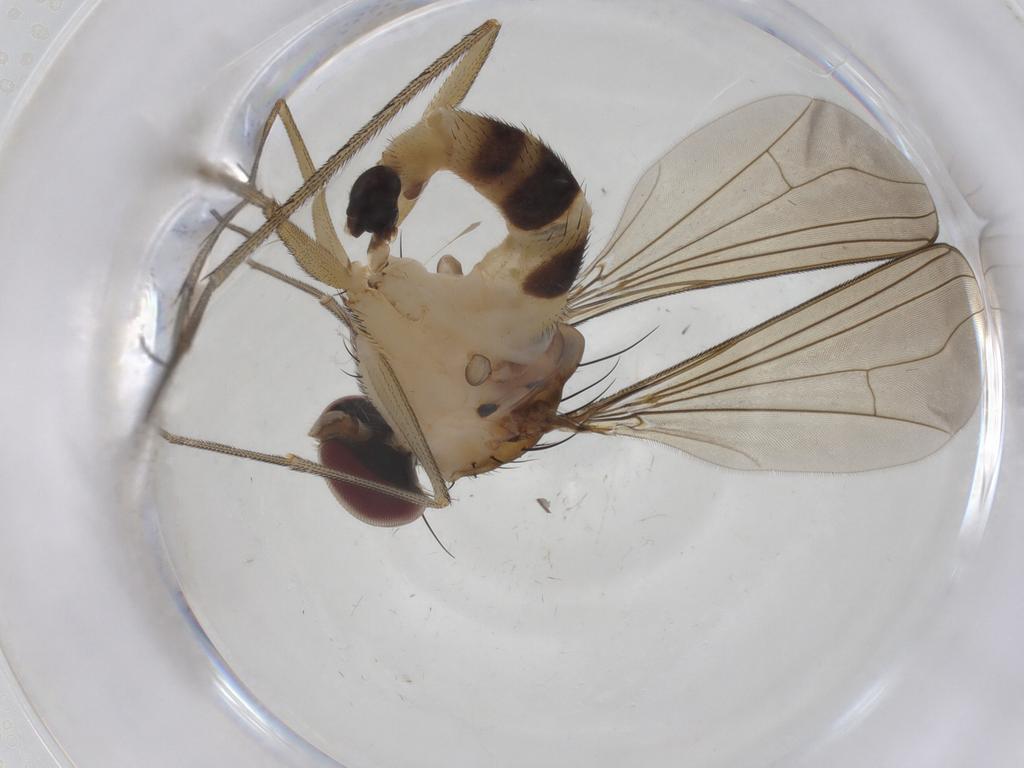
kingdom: Animalia
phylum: Arthropoda
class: Insecta
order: Diptera
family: Dolichopodidae
